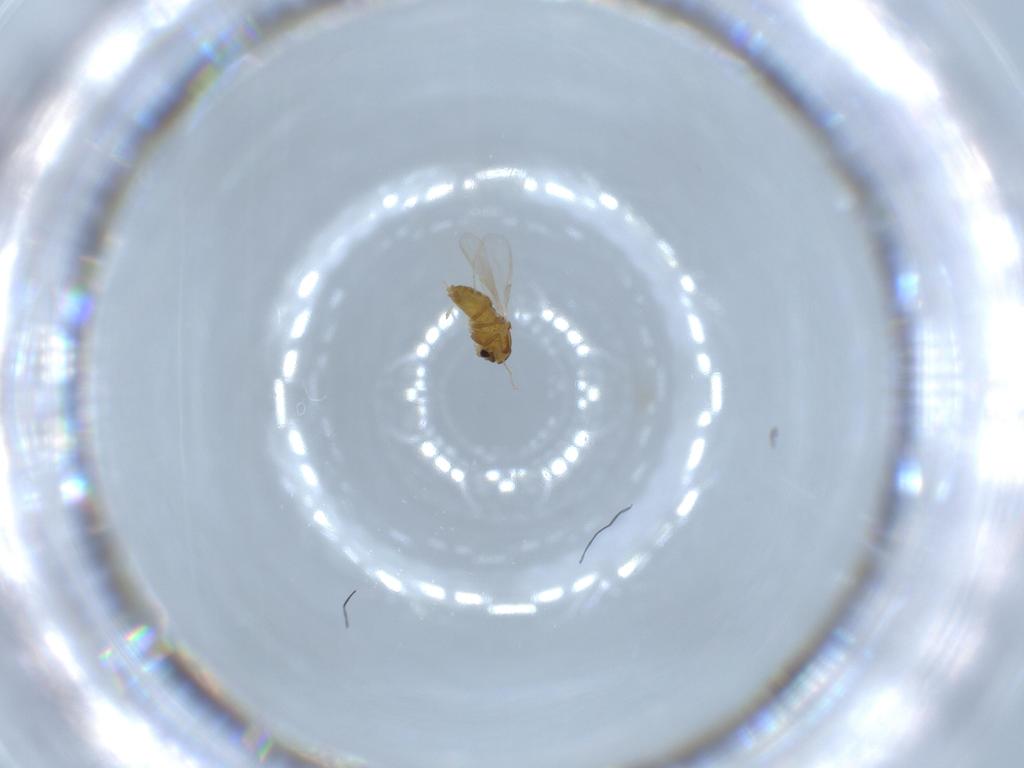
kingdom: Animalia
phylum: Arthropoda
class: Insecta
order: Diptera
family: Chironomidae
